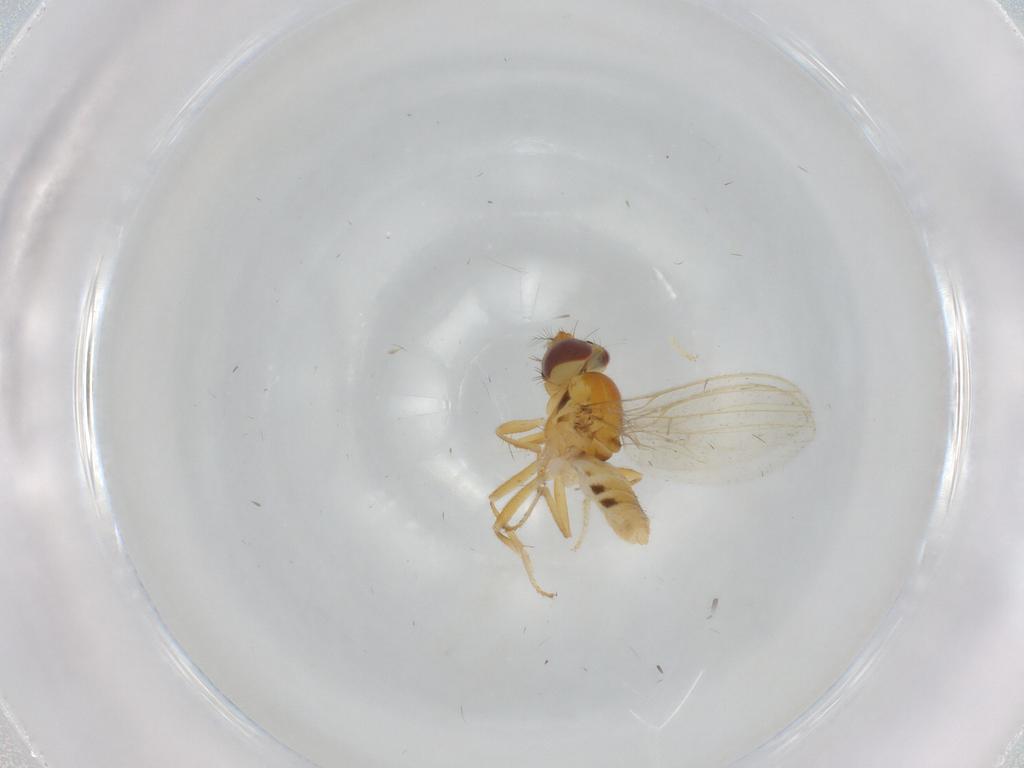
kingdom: Animalia
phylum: Arthropoda
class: Insecta
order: Diptera
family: Periscelididae
